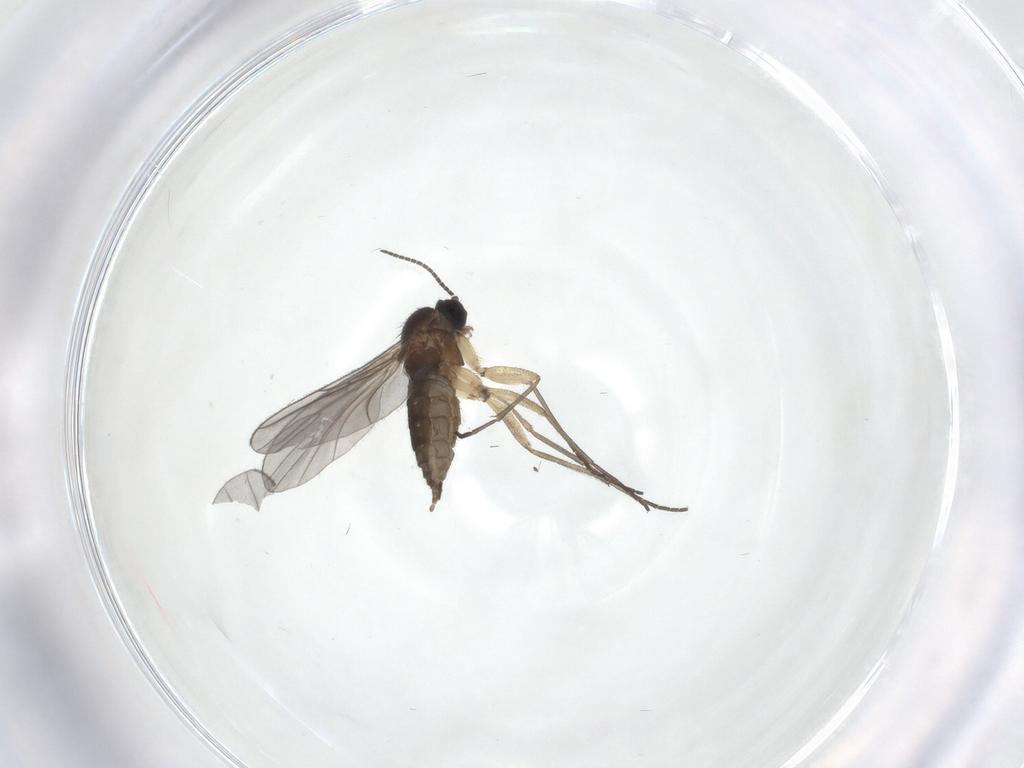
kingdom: Animalia
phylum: Arthropoda
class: Insecta
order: Diptera
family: Sciaridae
